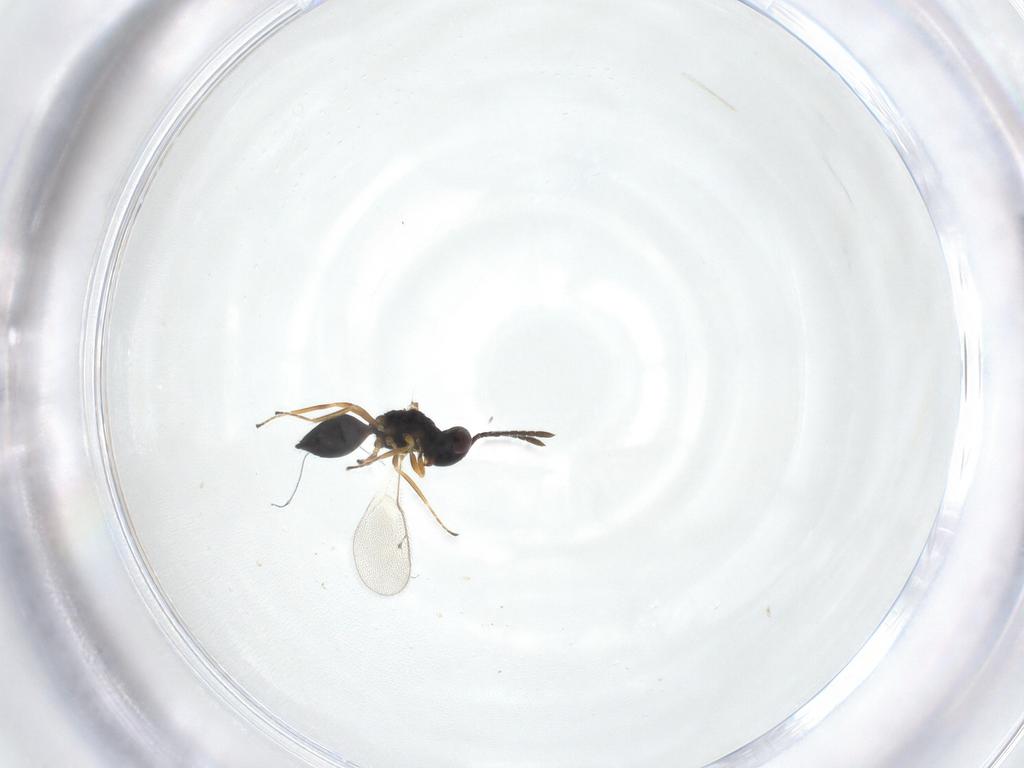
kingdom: Animalia
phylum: Arthropoda
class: Insecta
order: Hymenoptera
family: Pteromalidae
